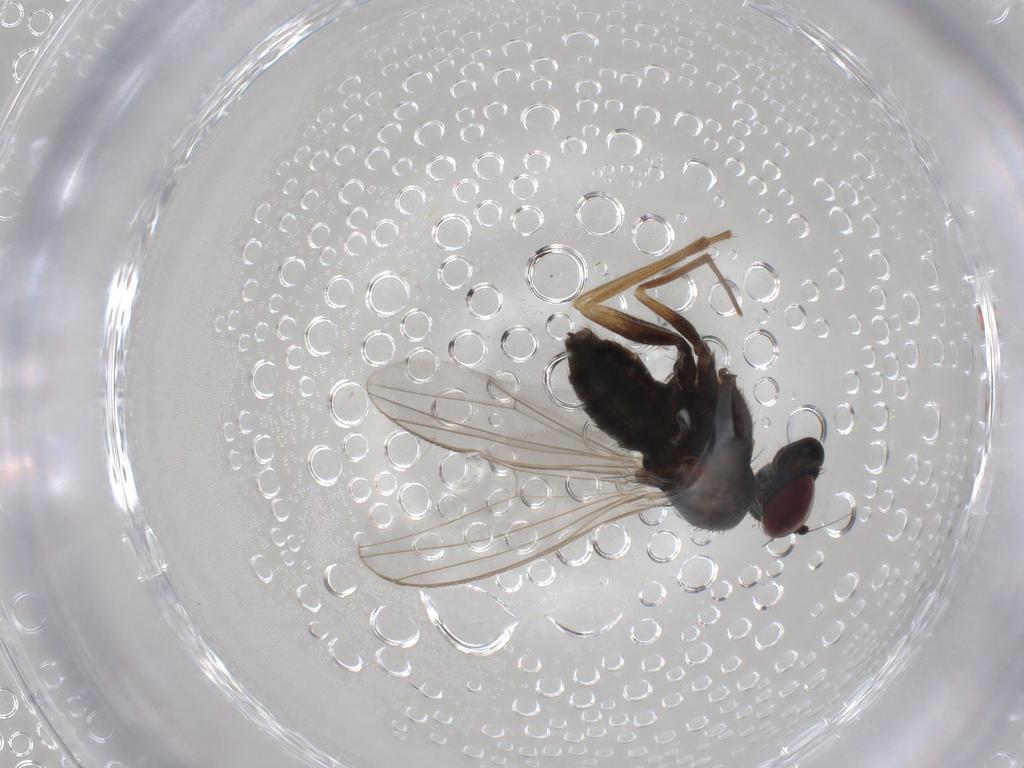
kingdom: Animalia
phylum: Arthropoda
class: Insecta
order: Diptera
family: Dolichopodidae
